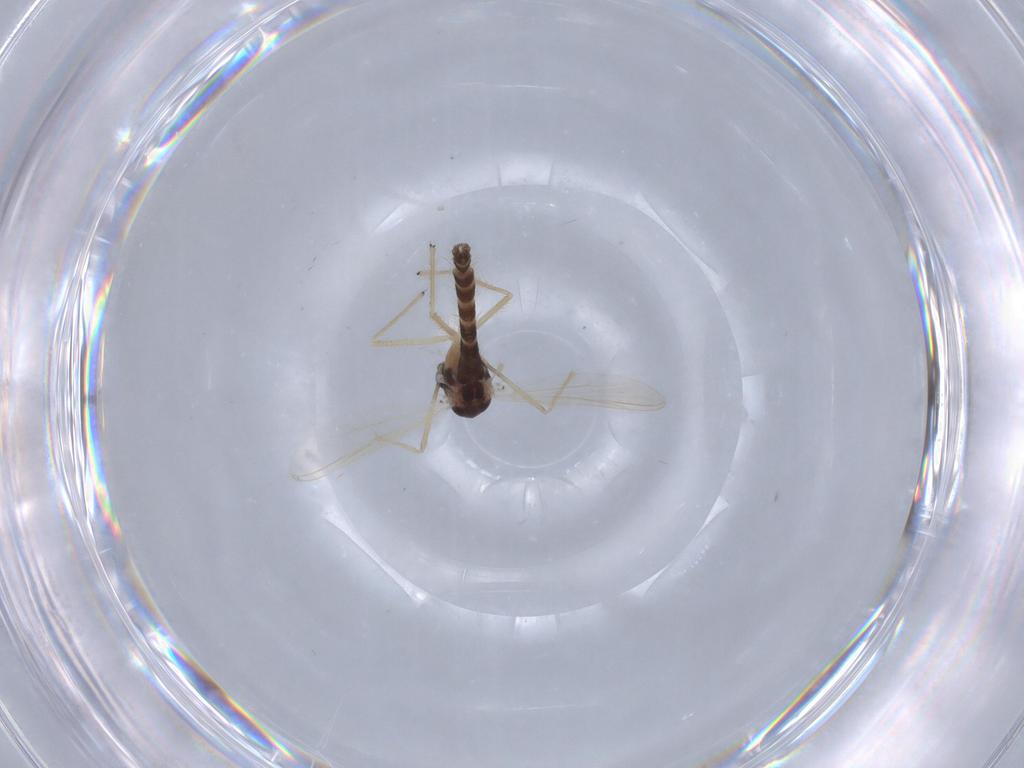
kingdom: Animalia
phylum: Arthropoda
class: Insecta
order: Diptera
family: Chironomidae
